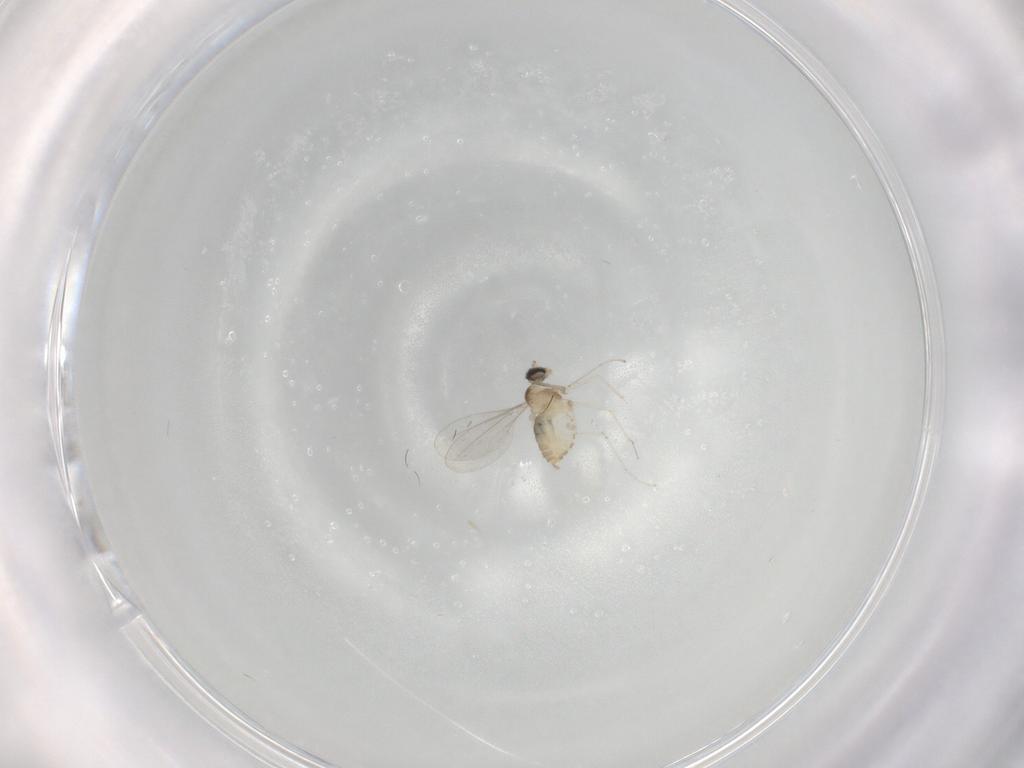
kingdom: Animalia
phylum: Arthropoda
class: Insecta
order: Diptera
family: Cecidomyiidae
